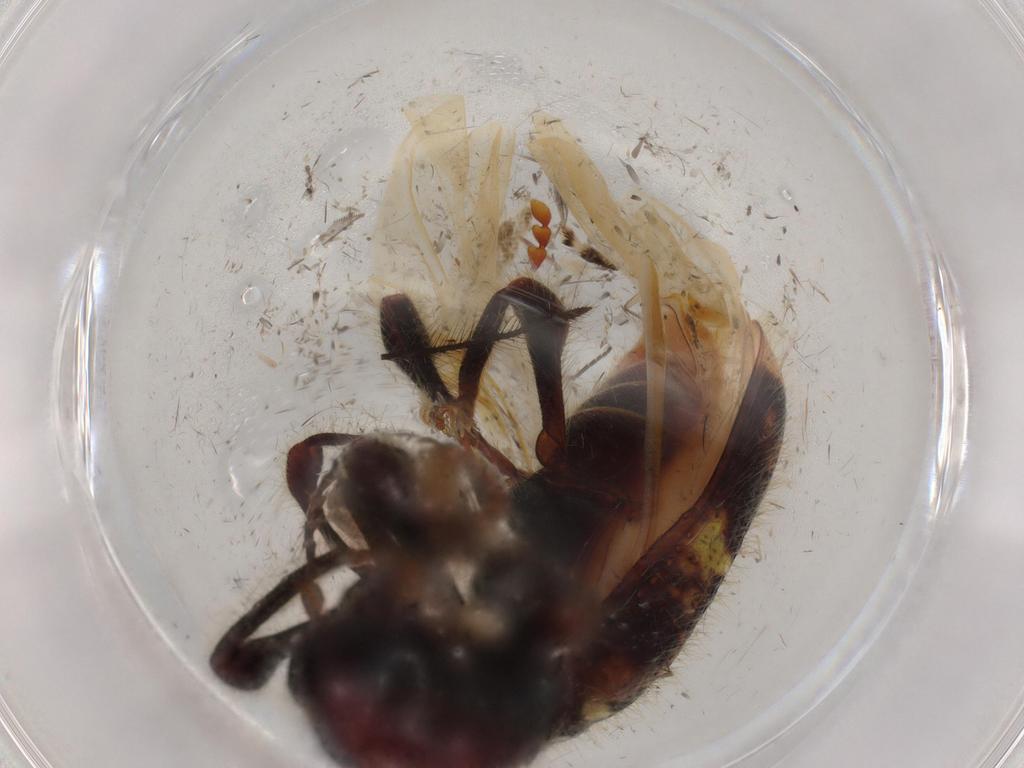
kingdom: Animalia
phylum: Arthropoda
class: Insecta
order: Coleoptera
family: Cleridae
